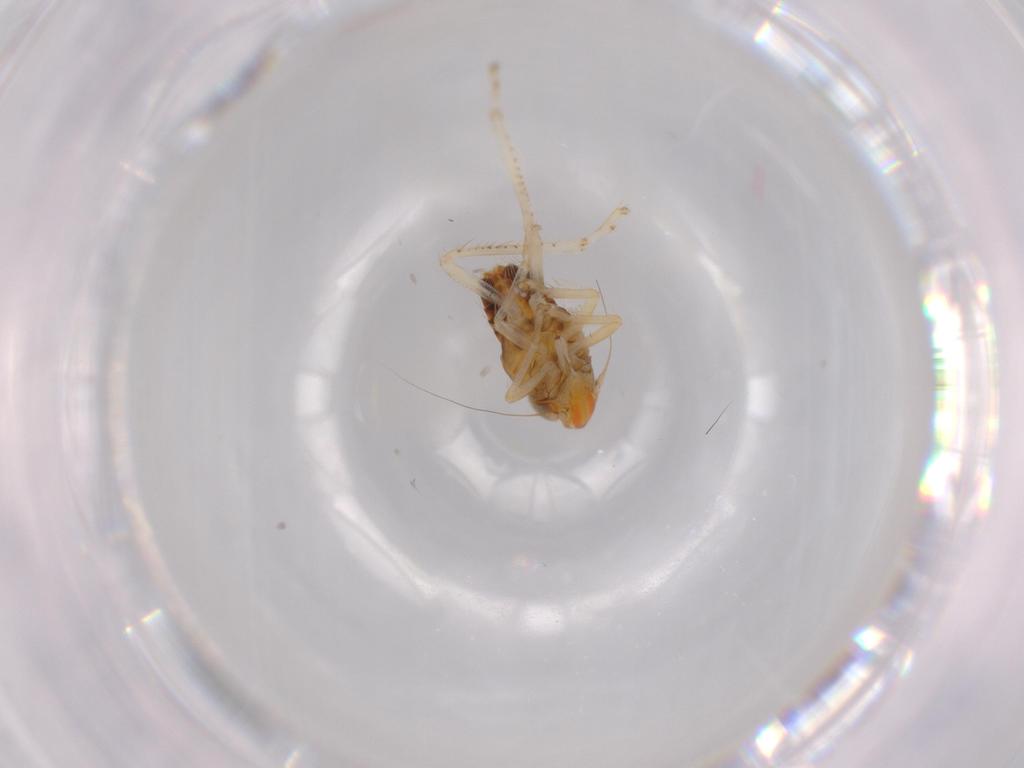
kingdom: Animalia
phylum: Arthropoda
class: Insecta
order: Hemiptera
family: Cicadellidae
